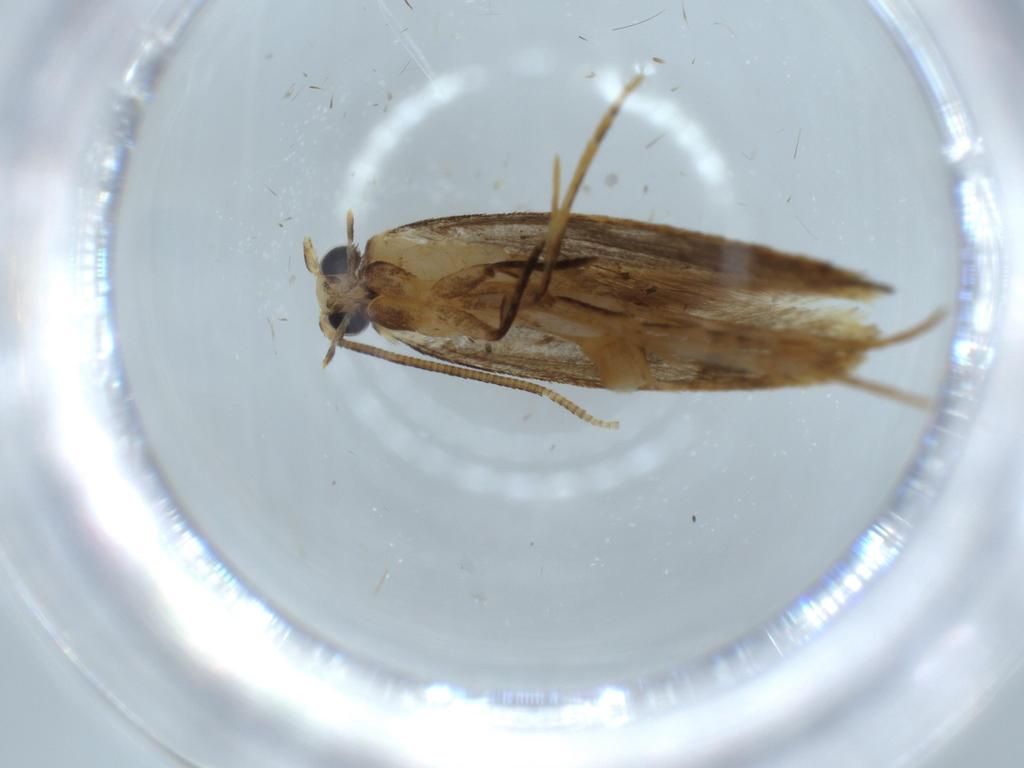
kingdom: Animalia
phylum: Arthropoda
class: Insecta
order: Lepidoptera
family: Tineidae
